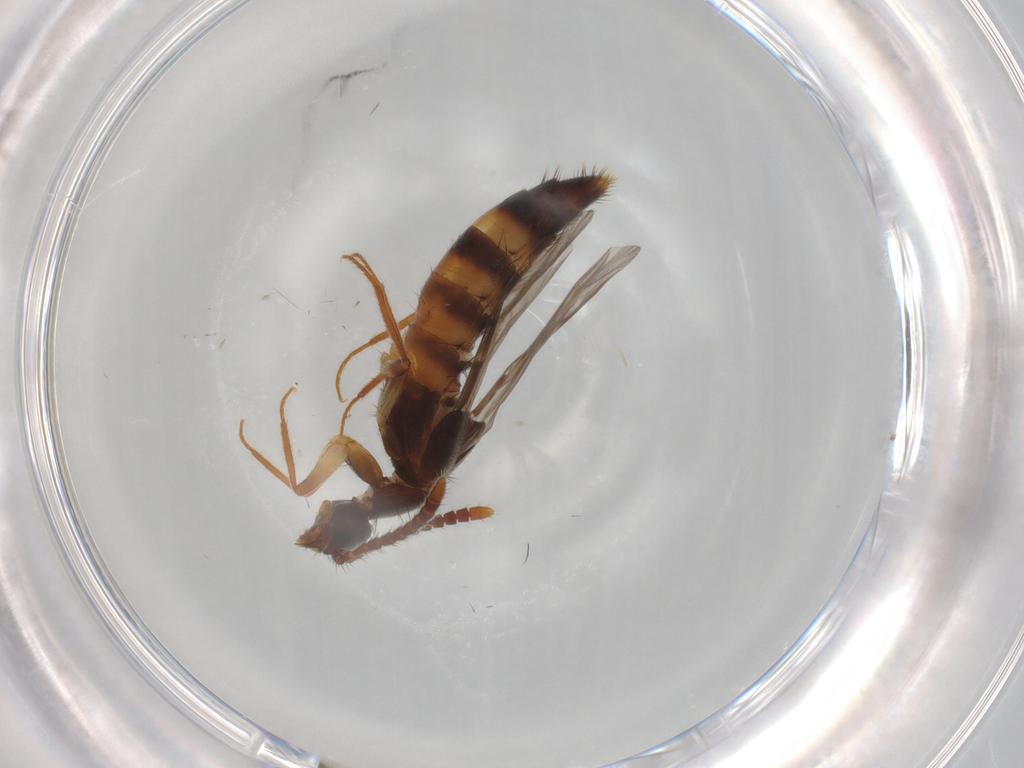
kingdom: Animalia
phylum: Arthropoda
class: Insecta
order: Coleoptera
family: Staphylinidae
